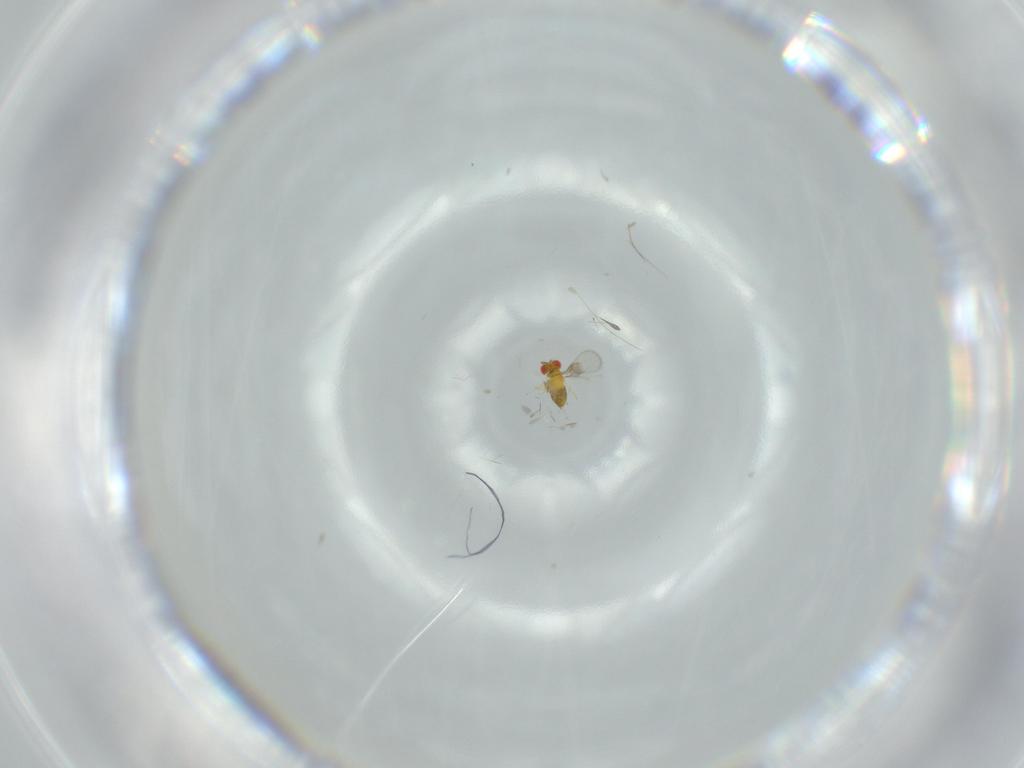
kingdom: Animalia
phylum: Arthropoda
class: Insecta
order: Hymenoptera
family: Trichogrammatidae
